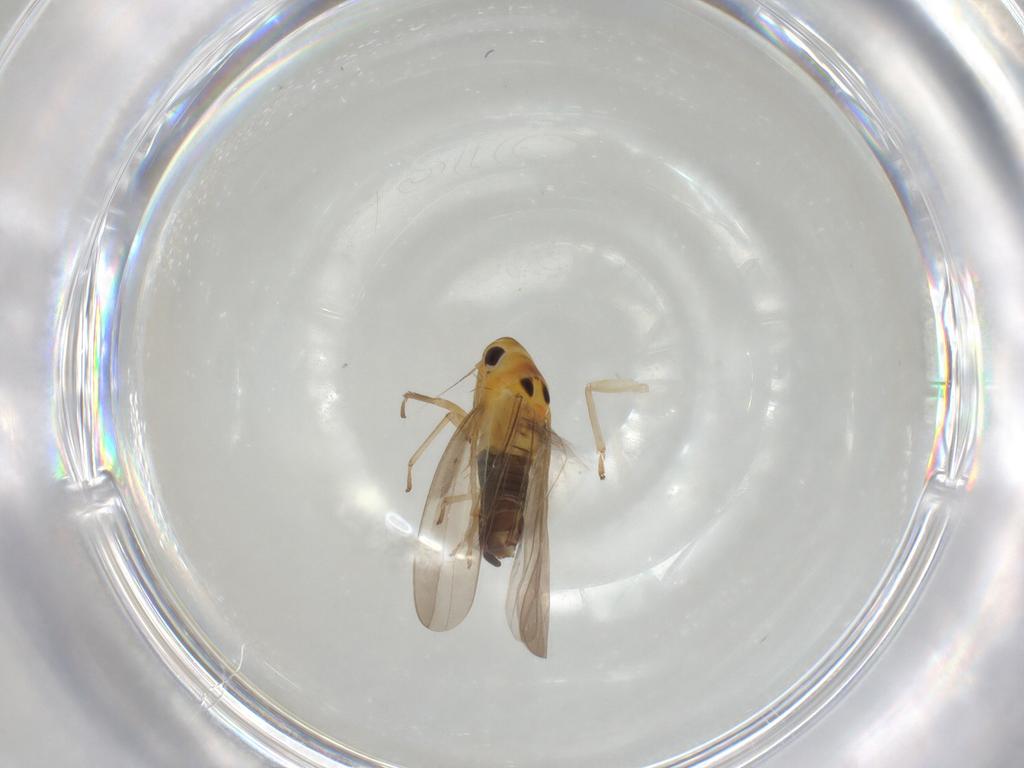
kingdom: Animalia
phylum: Arthropoda
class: Insecta
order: Hemiptera
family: Cicadellidae
